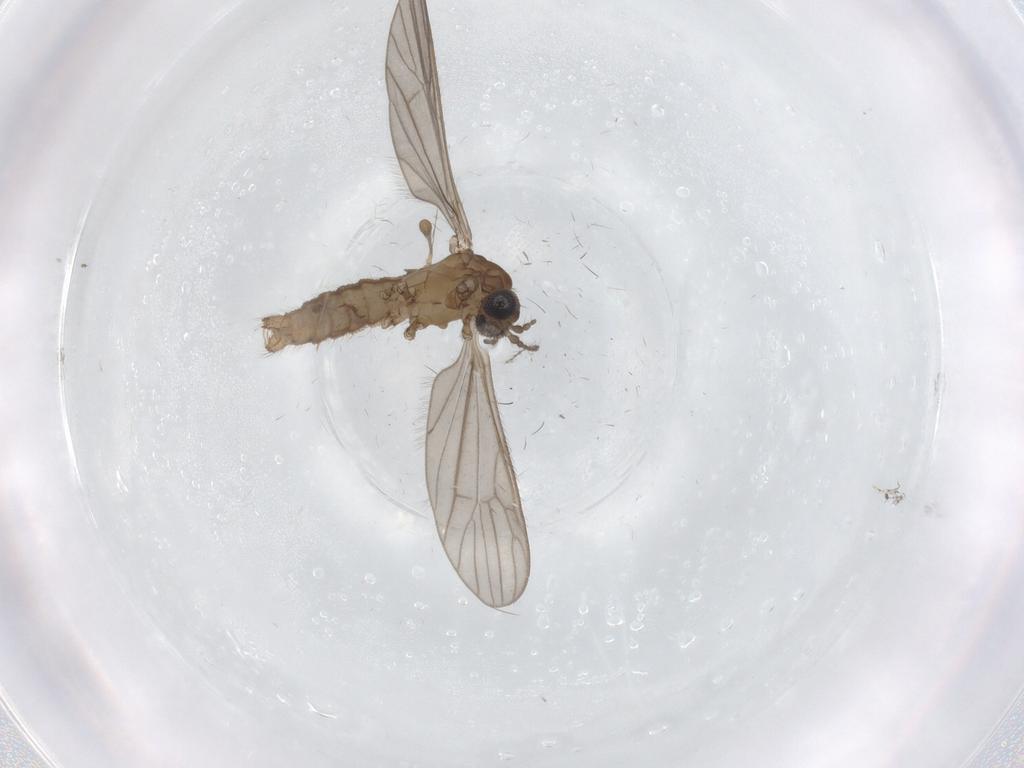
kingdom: Animalia
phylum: Arthropoda
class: Insecta
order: Diptera
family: Limoniidae
